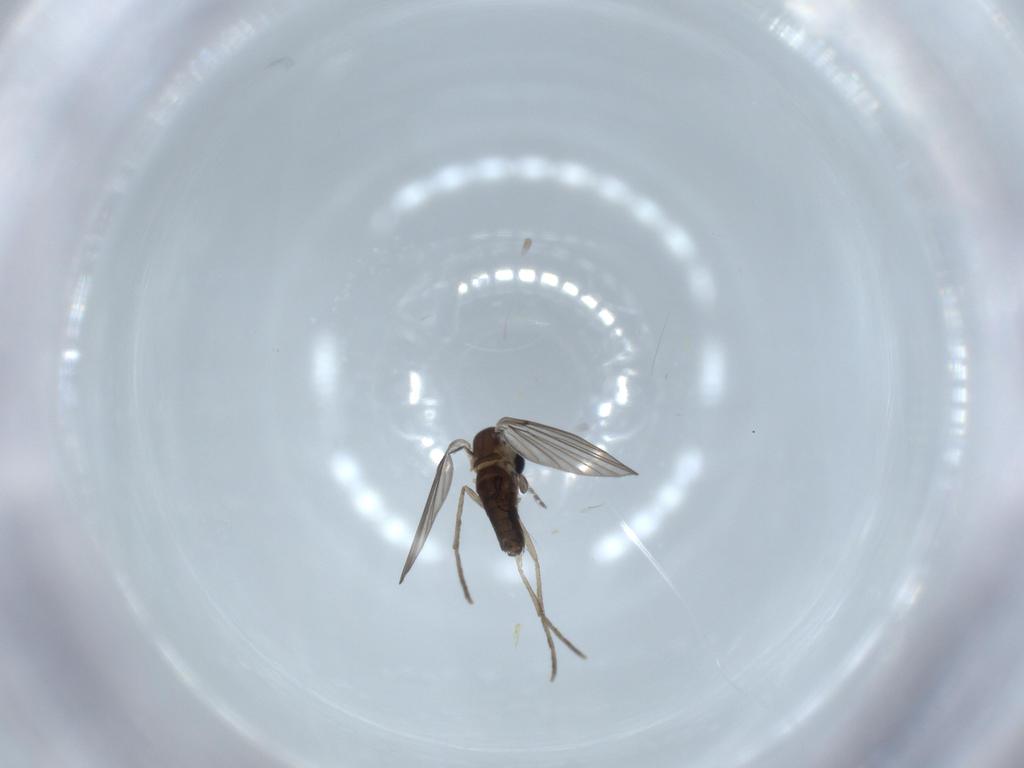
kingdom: Animalia
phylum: Arthropoda
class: Insecta
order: Diptera
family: Psychodidae
